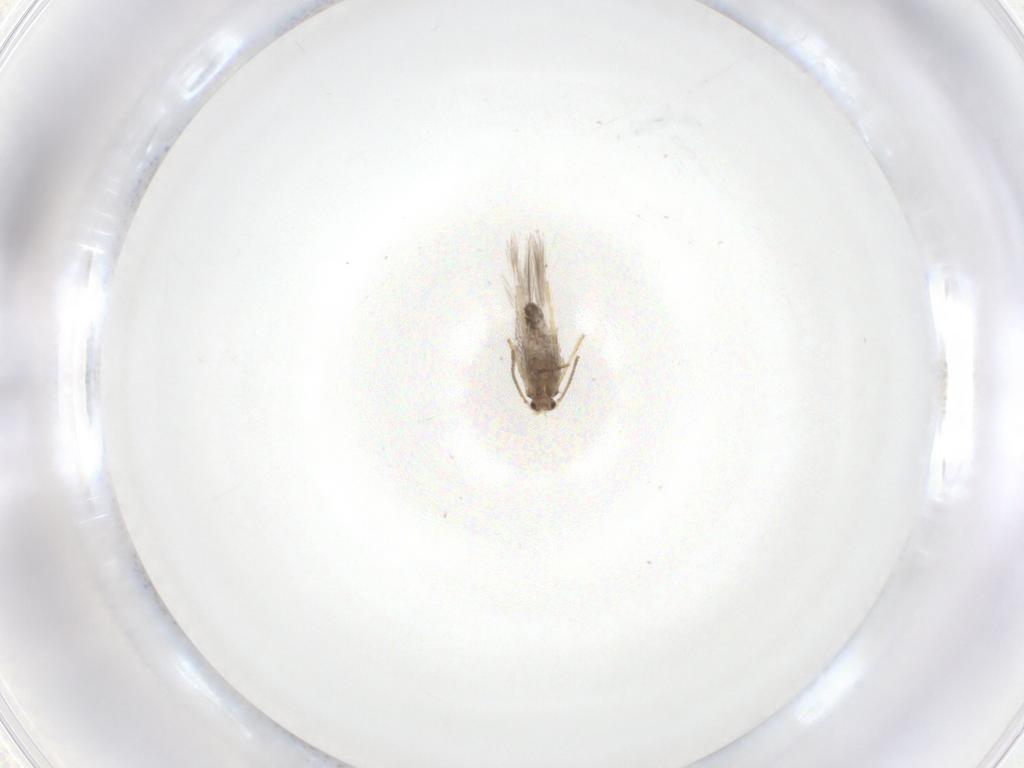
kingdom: Animalia
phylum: Arthropoda
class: Insecta
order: Lepidoptera
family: Nepticulidae
